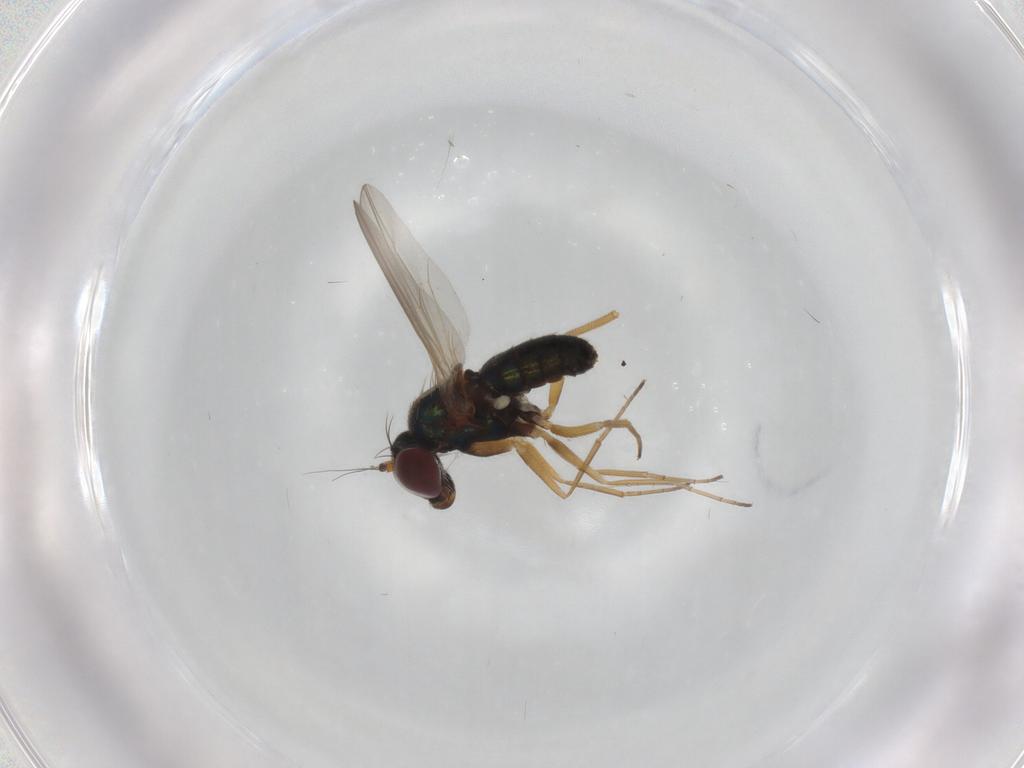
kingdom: Animalia
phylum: Arthropoda
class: Insecta
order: Diptera
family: Dolichopodidae
